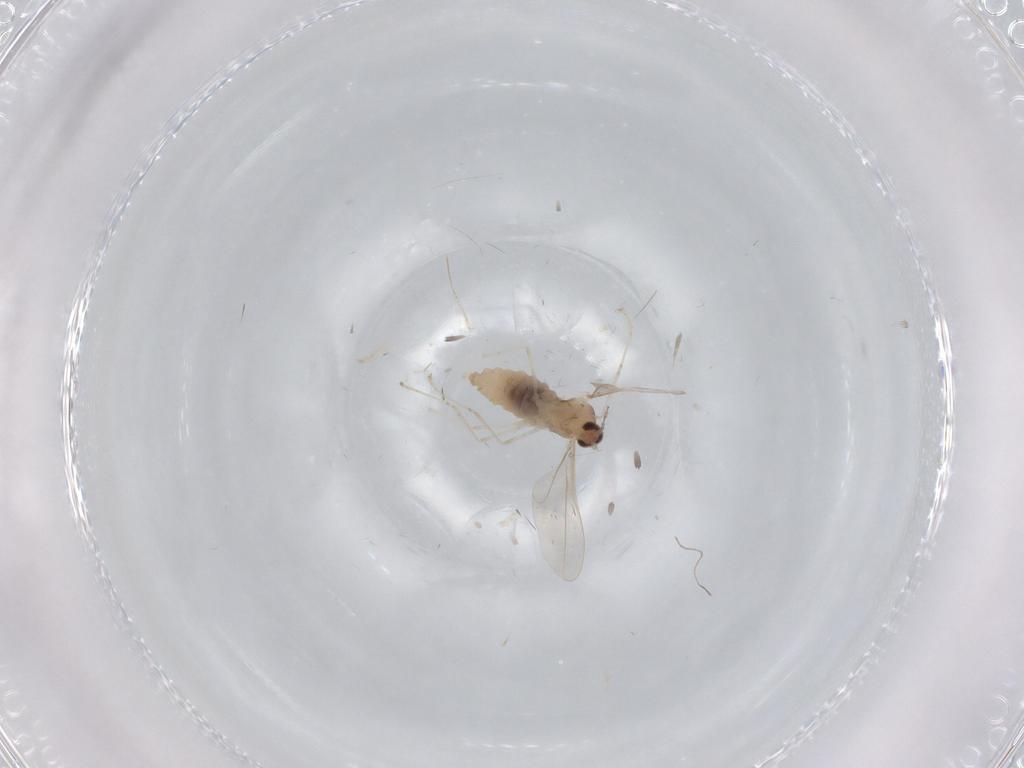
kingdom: Animalia
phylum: Arthropoda
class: Insecta
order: Diptera
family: Cecidomyiidae
